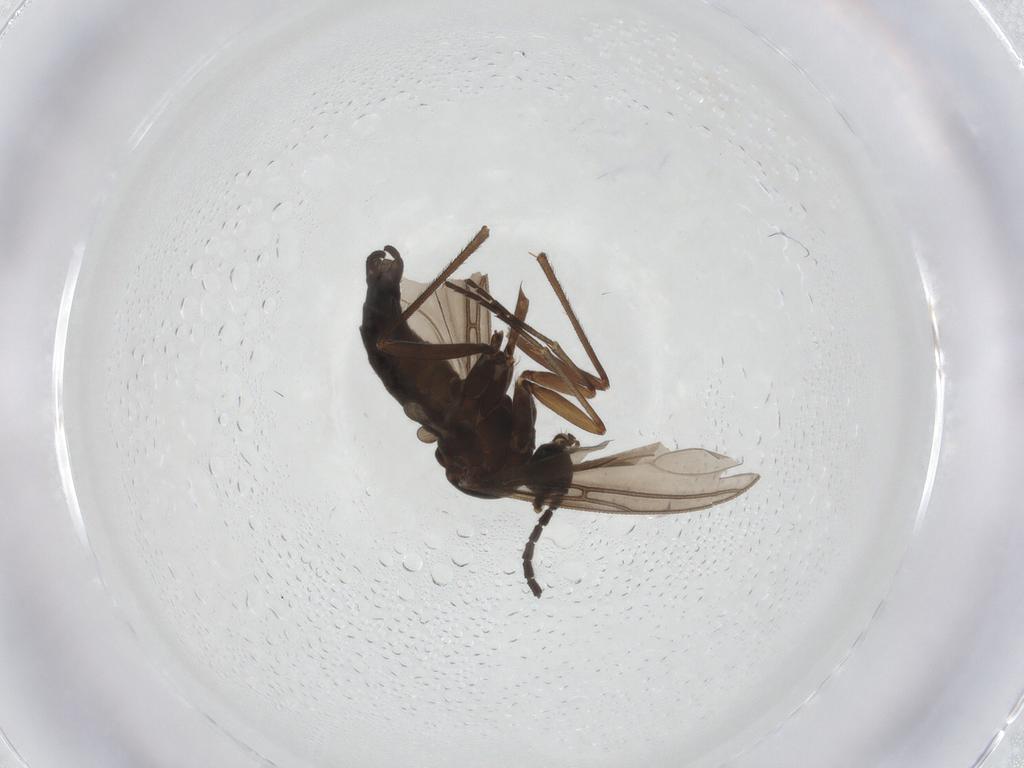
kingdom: Animalia
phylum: Arthropoda
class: Insecta
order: Diptera
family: Sciaridae
